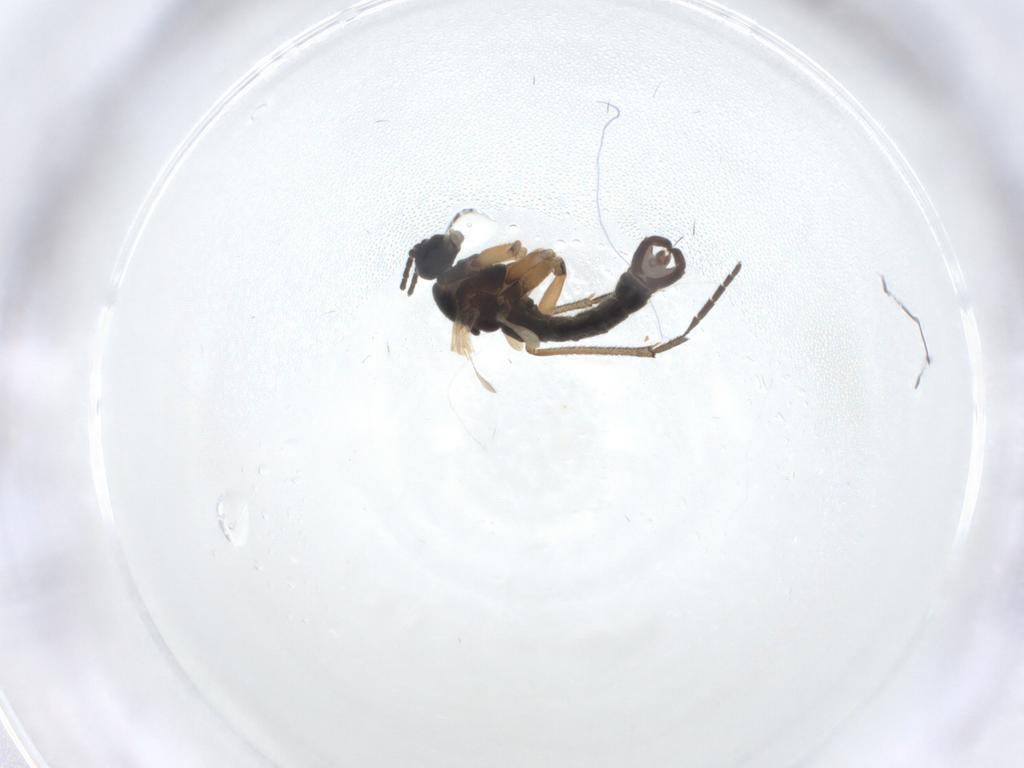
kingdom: Animalia
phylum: Arthropoda
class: Insecta
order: Diptera
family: Sciaridae
